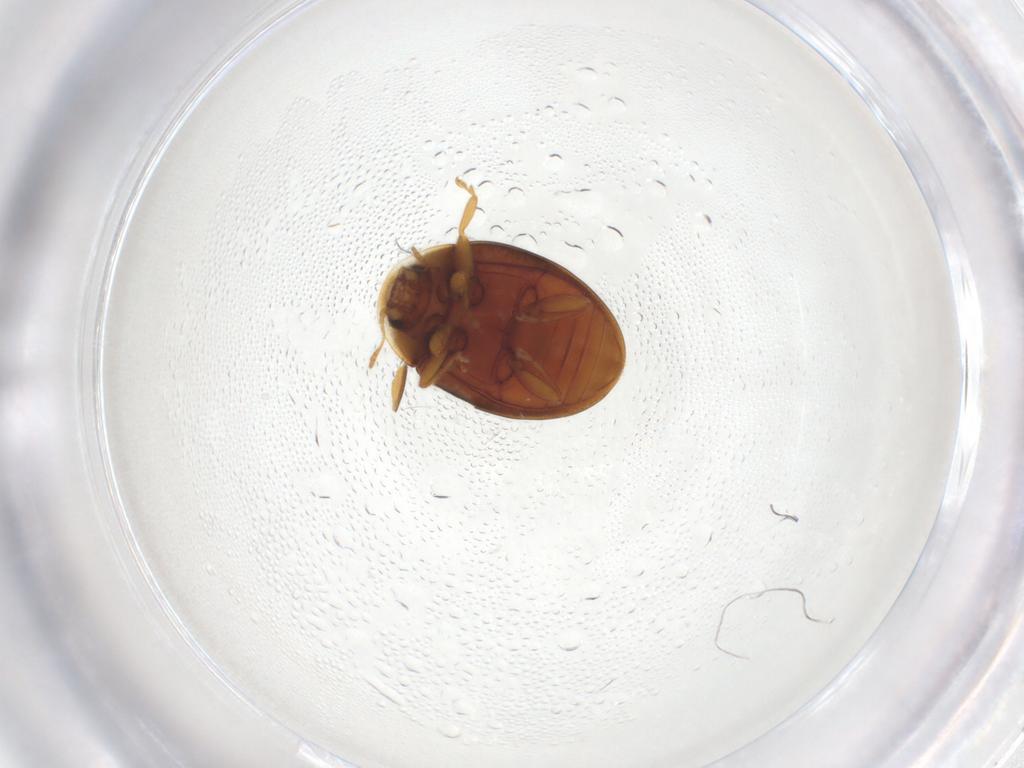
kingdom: Animalia
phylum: Arthropoda
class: Insecta
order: Coleoptera
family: Coccinellidae
